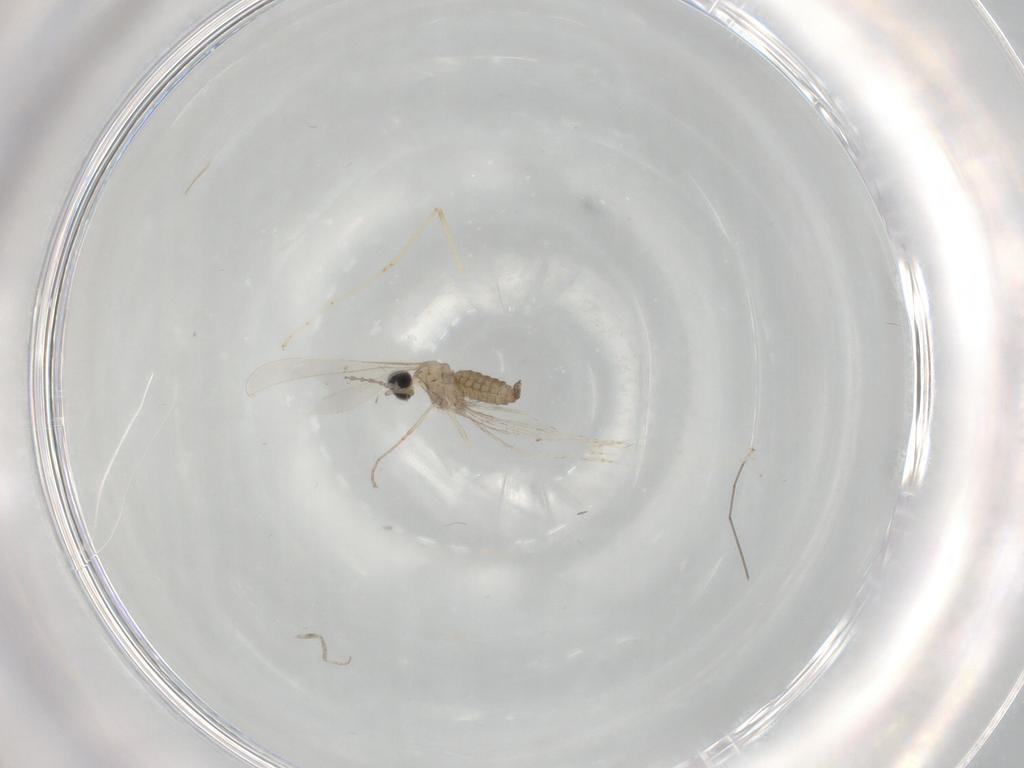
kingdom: Animalia
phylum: Arthropoda
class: Insecta
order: Diptera
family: Cecidomyiidae
